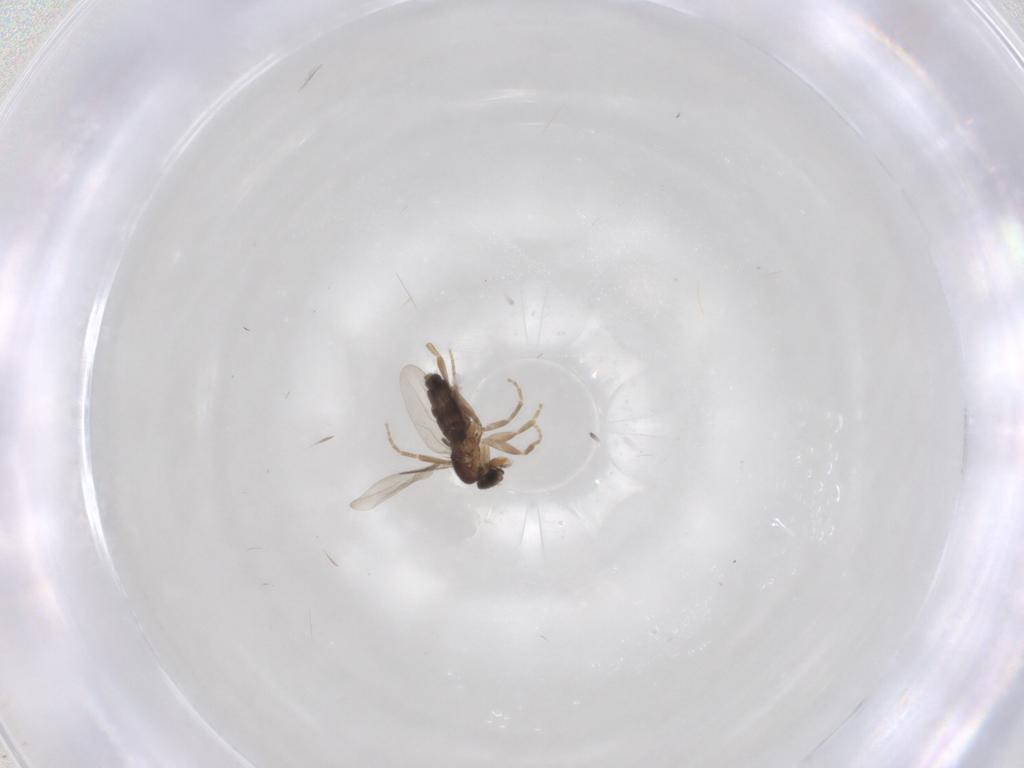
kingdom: Animalia
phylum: Arthropoda
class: Insecta
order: Diptera
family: Phoridae
